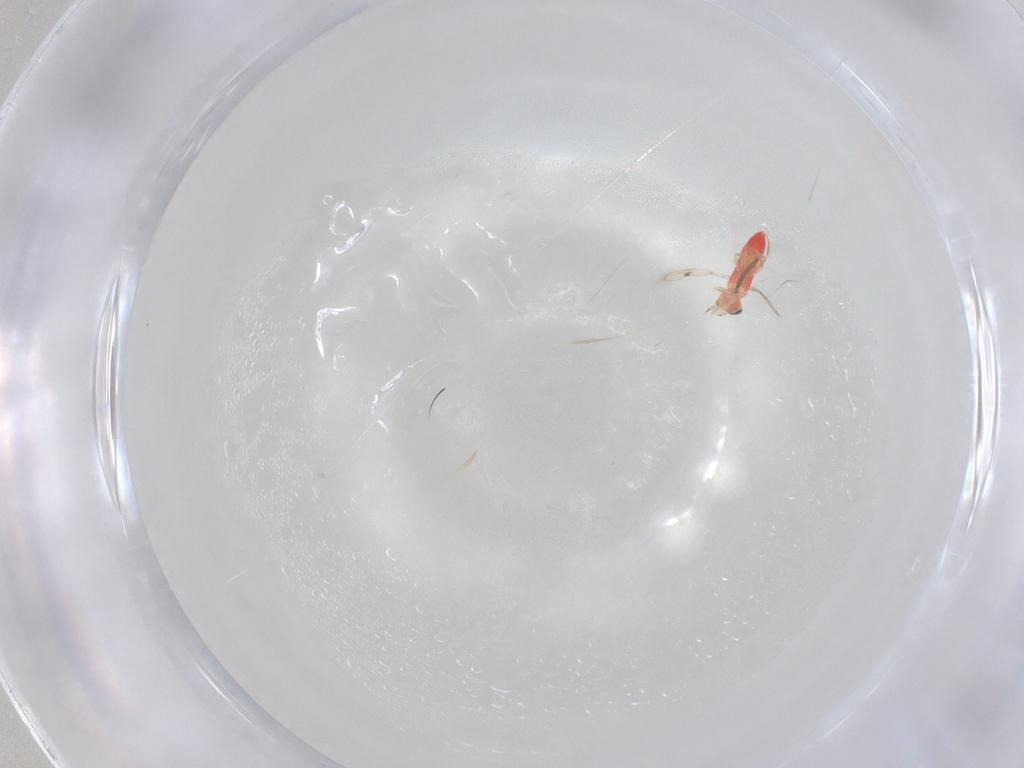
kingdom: Animalia
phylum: Arthropoda
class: Insecta
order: Hymenoptera
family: Trichogrammatidae
